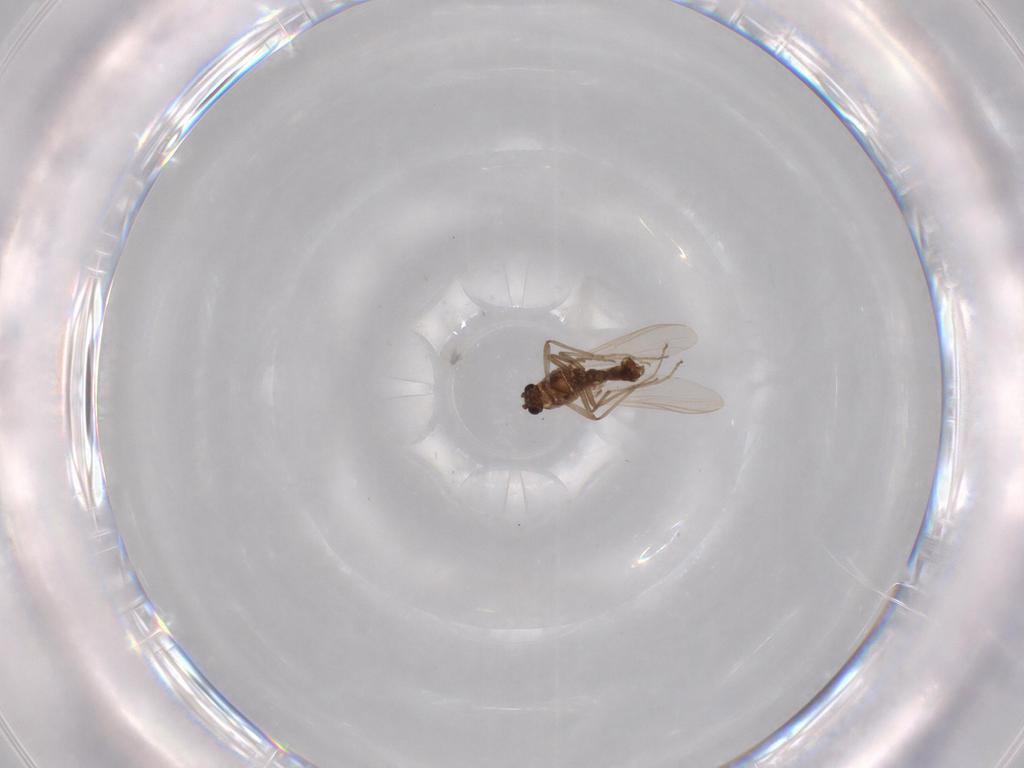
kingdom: Animalia
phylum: Arthropoda
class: Insecta
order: Diptera
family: Chironomidae
